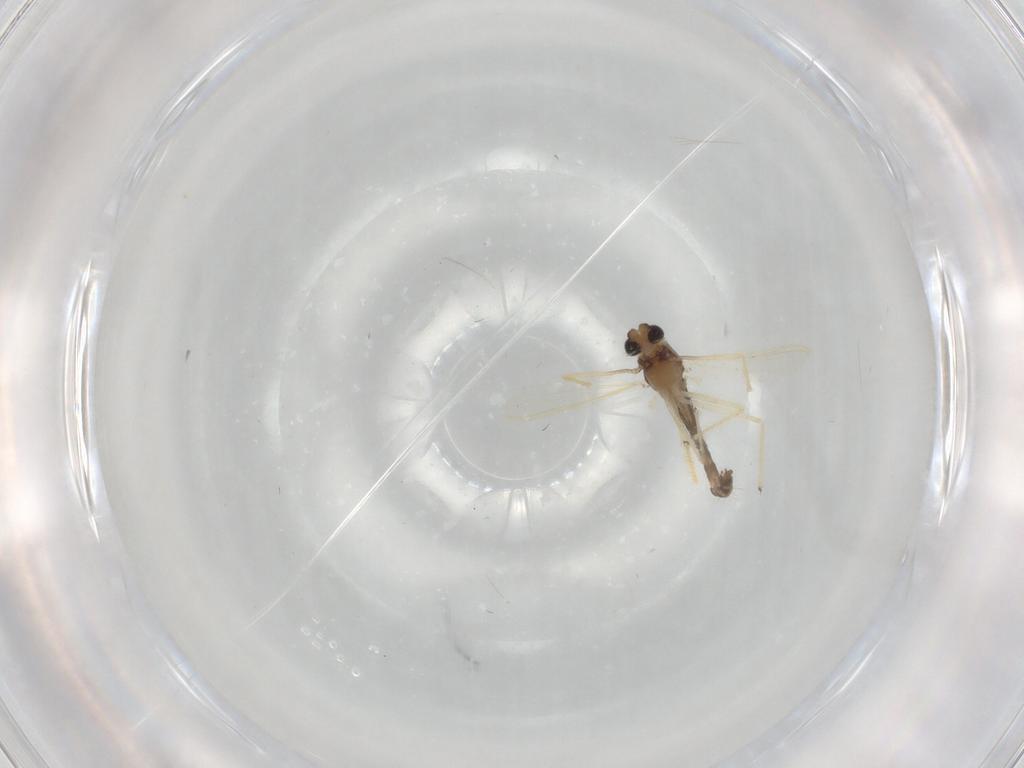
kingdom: Animalia
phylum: Arthropoda
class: Insecta
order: Diptera
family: Chironomidae
